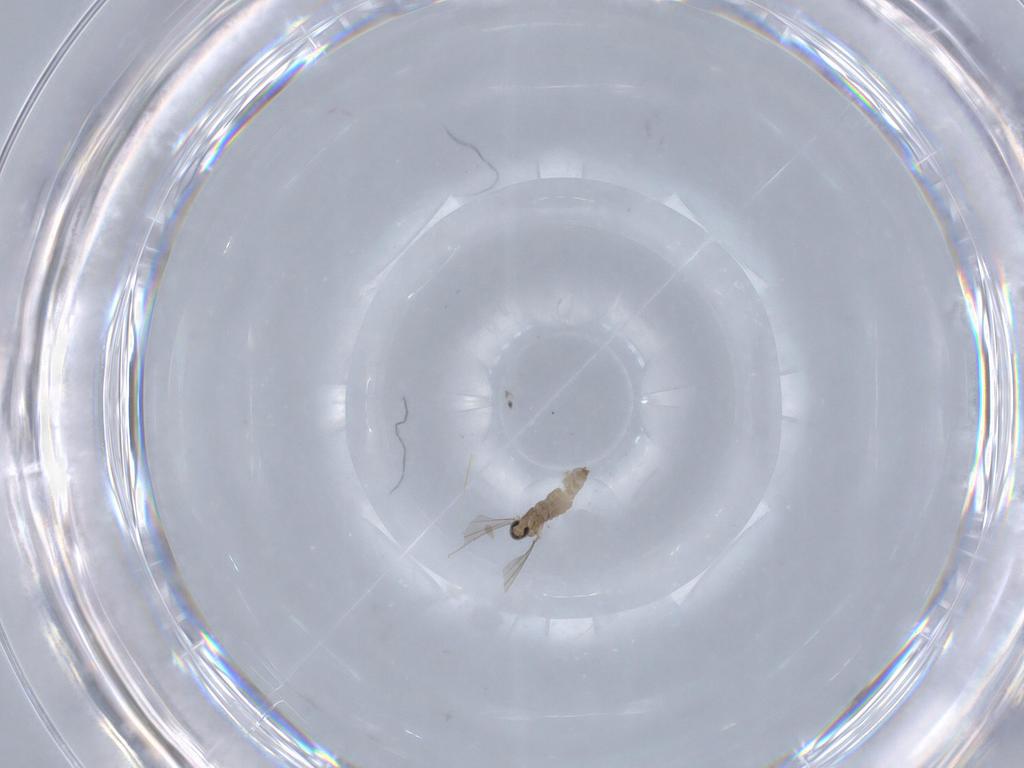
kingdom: Animalia
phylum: Arthropoda
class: Insecta
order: Diptera
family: Cecidomyiidae
